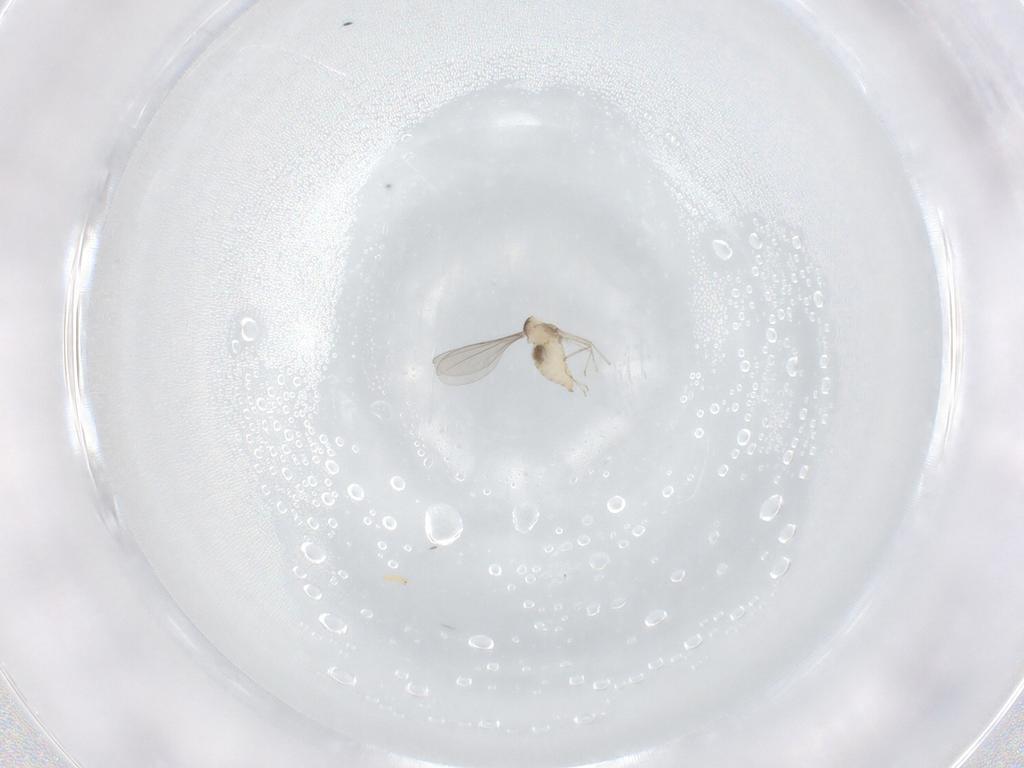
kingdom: Animalia
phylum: Arthropoda
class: Insecta
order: Diptera
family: Cecidomyiidae
